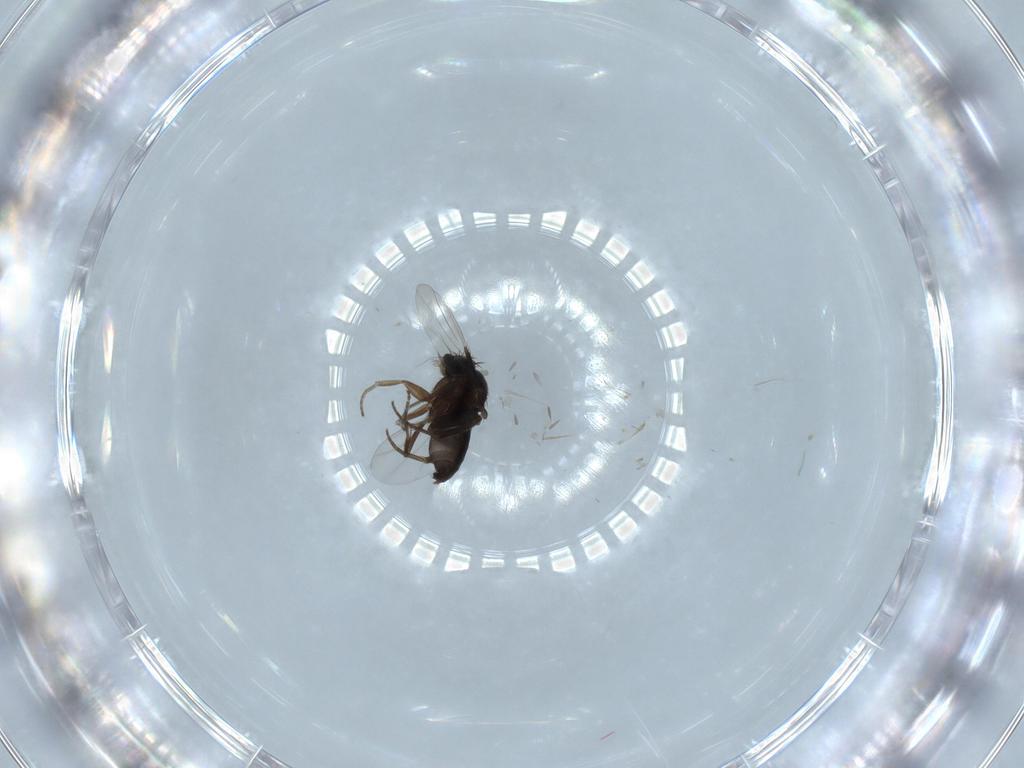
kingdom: Animalia
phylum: Arthropoda
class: Insecta
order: Diptera
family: Phoridae
